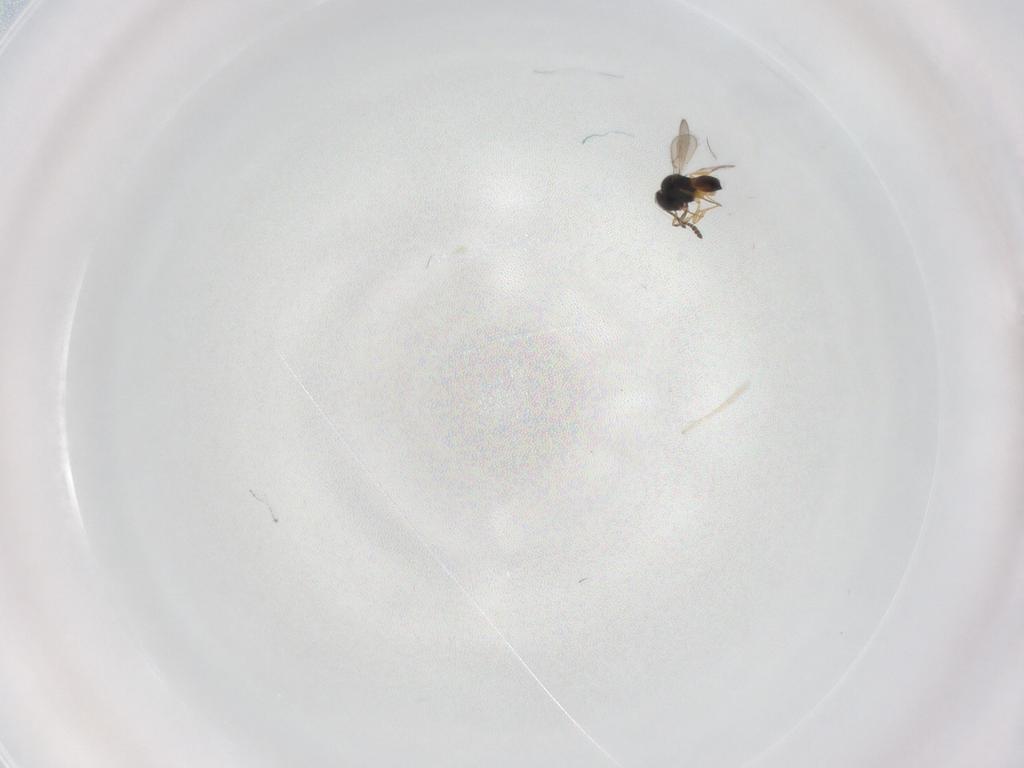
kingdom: Animalia
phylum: Arthropoda
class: Insecta
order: Hymenoptera
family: Scelionidae
